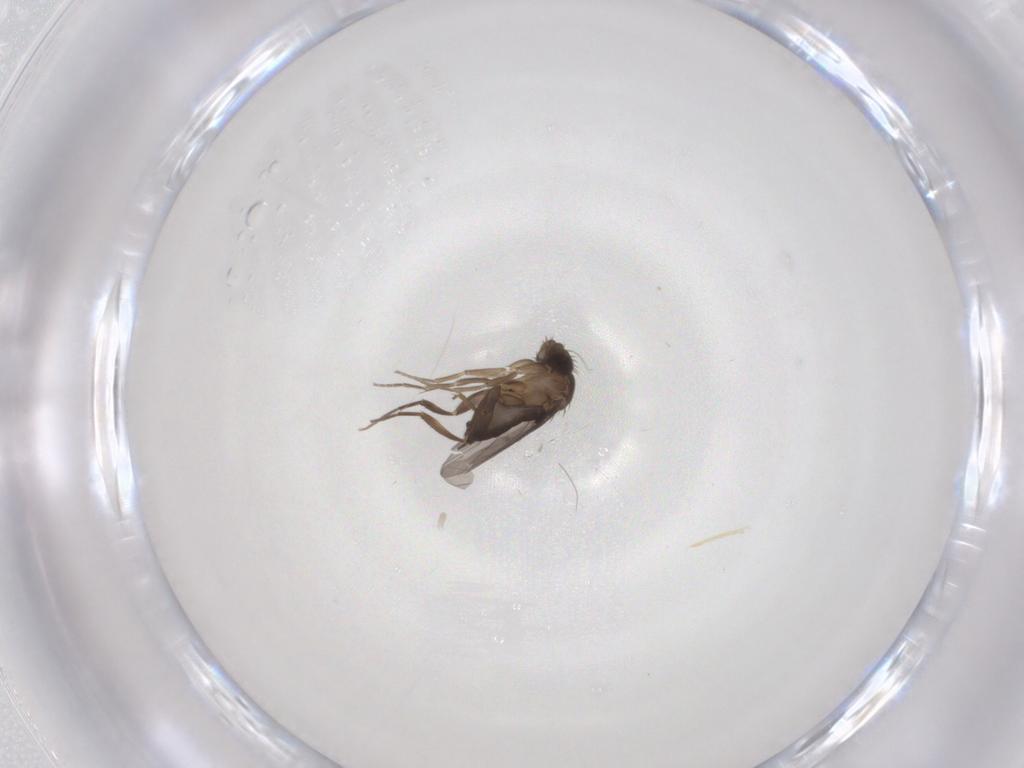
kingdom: Animalia
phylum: Arthropoda
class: Insecta
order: Diptera
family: Phoridae
